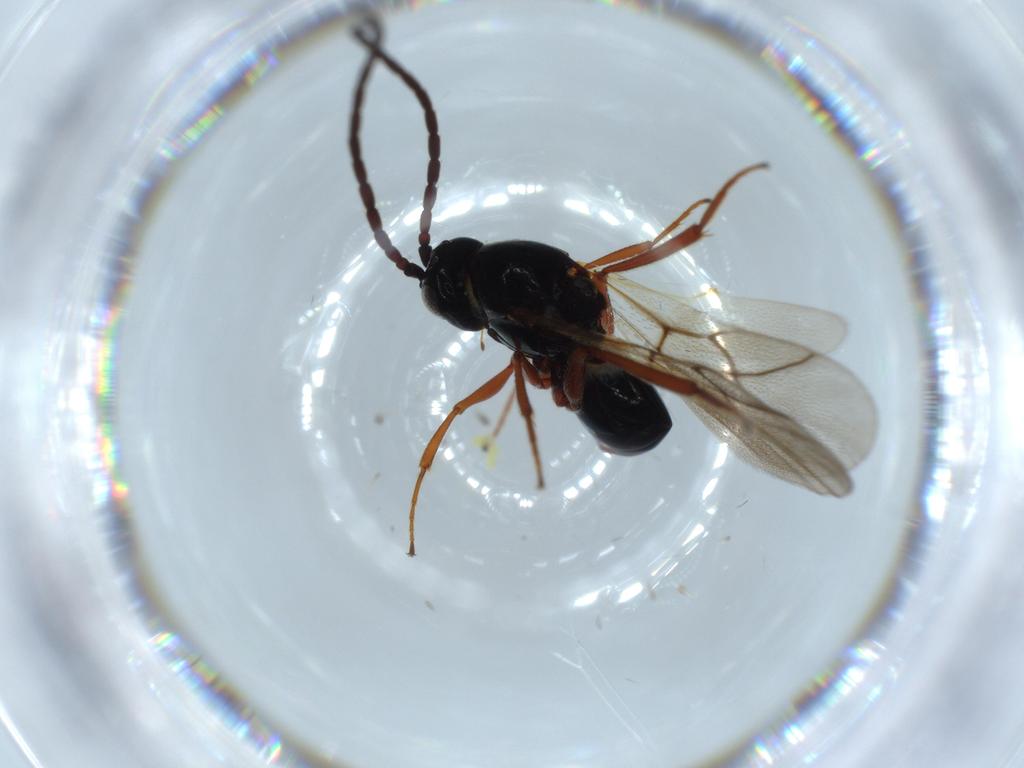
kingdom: Animalia
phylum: Arthropoda
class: Insecta
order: Hymenoptera
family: Figitidae
